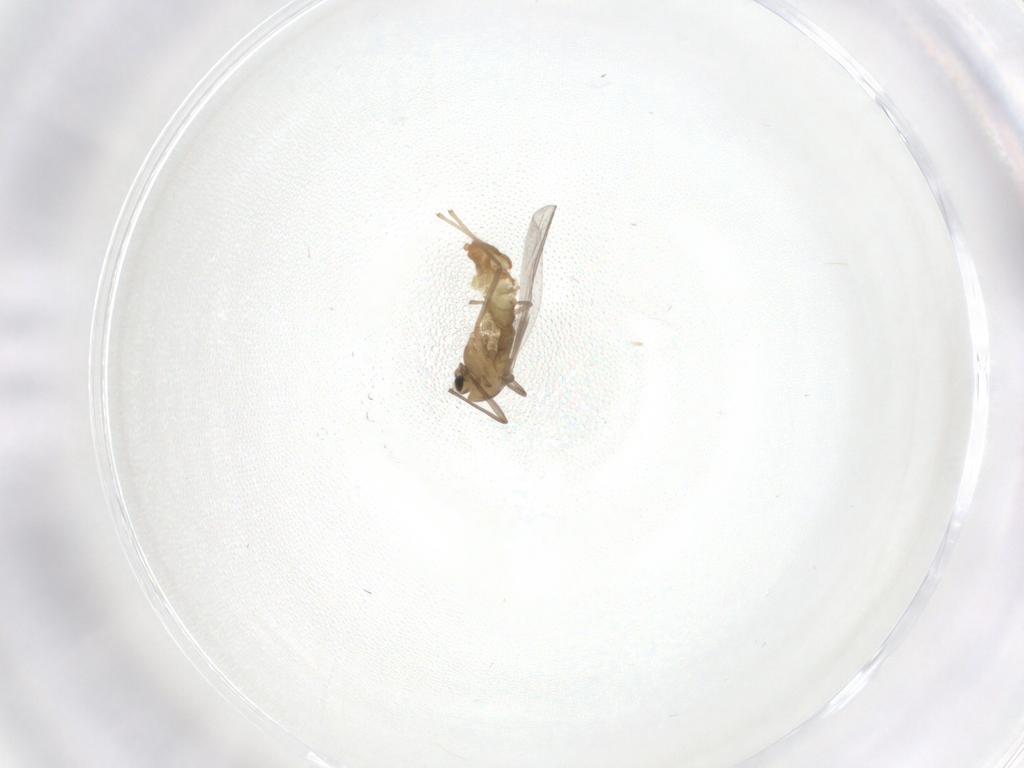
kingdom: Animalia
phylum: Arthropoda
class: Insecta
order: Diptera
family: Chironomidae
